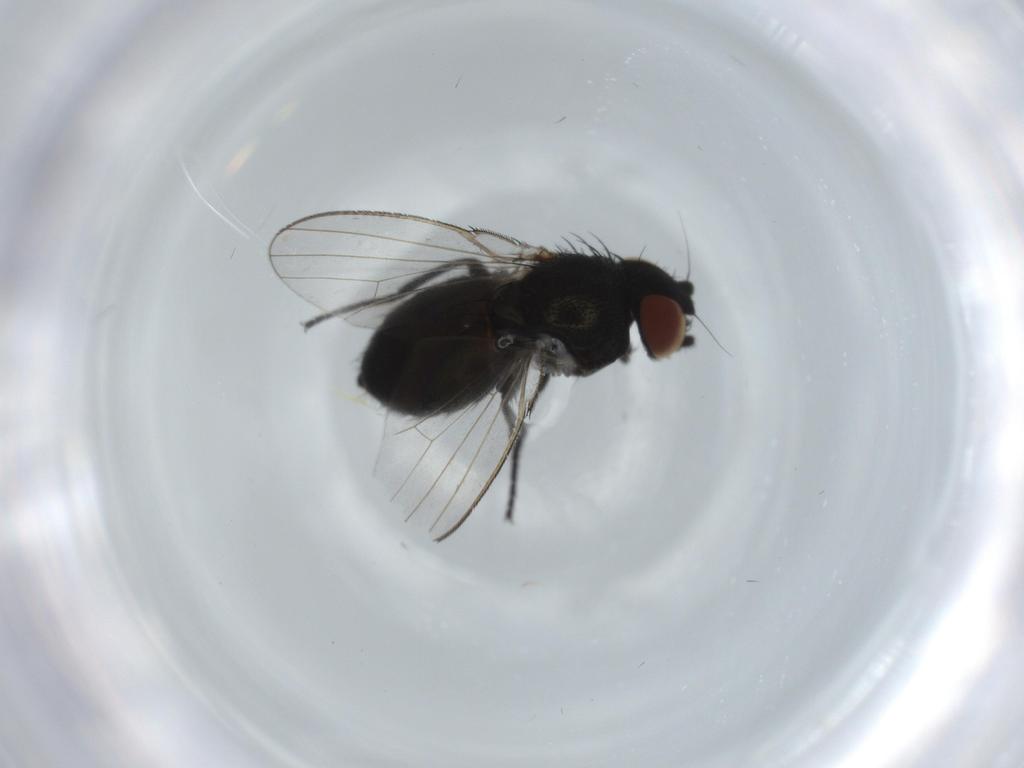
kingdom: Animalia
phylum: Arthropoda
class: Insecta
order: Diptera
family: Milichiidae
